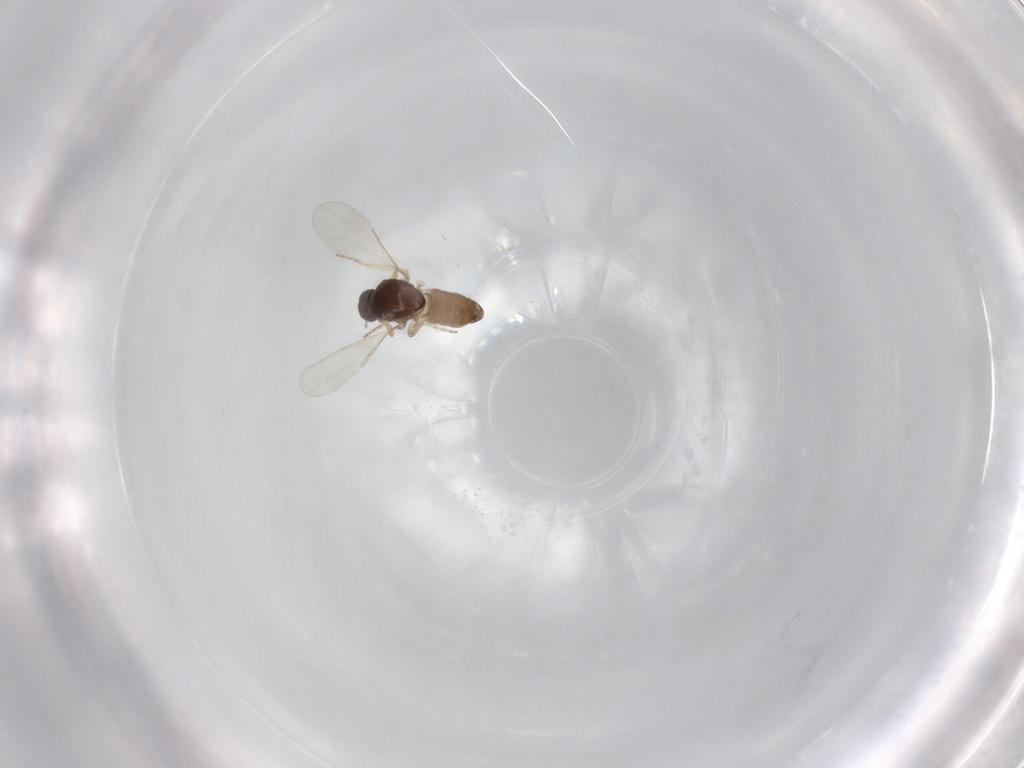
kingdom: Animalia
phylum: Arthropoda
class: Insecta
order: Diptera
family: Ceratopogonidae
